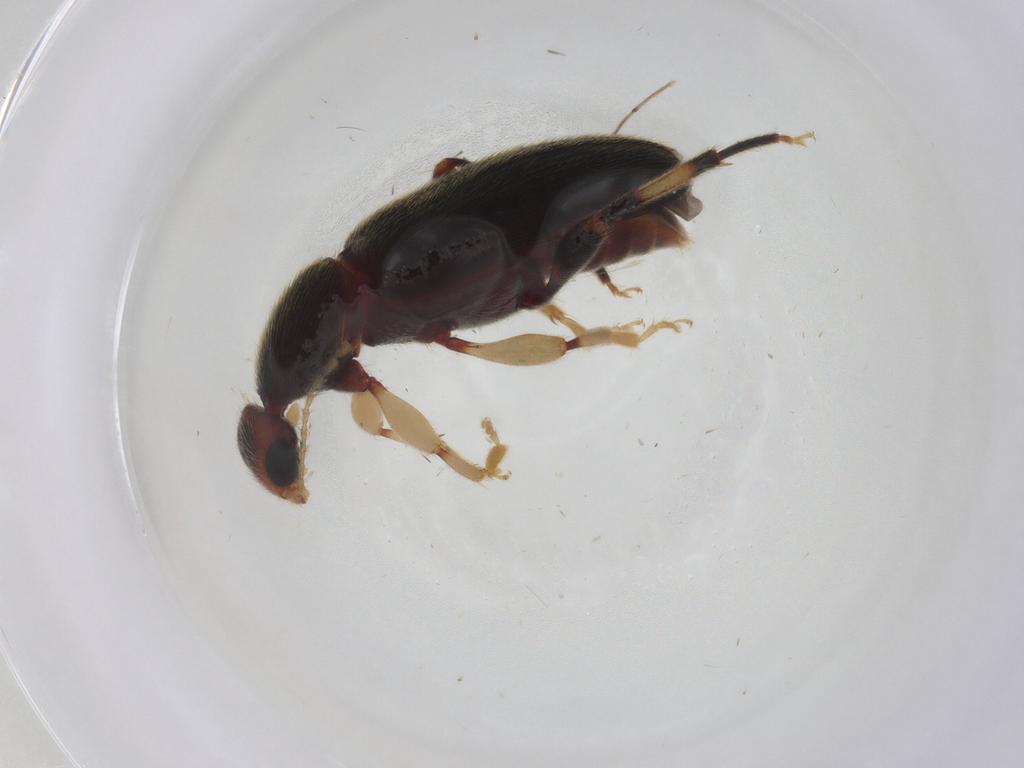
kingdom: Animalia
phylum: Arthropoda
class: Insecta
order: Coleoptera
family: Anthicidae
